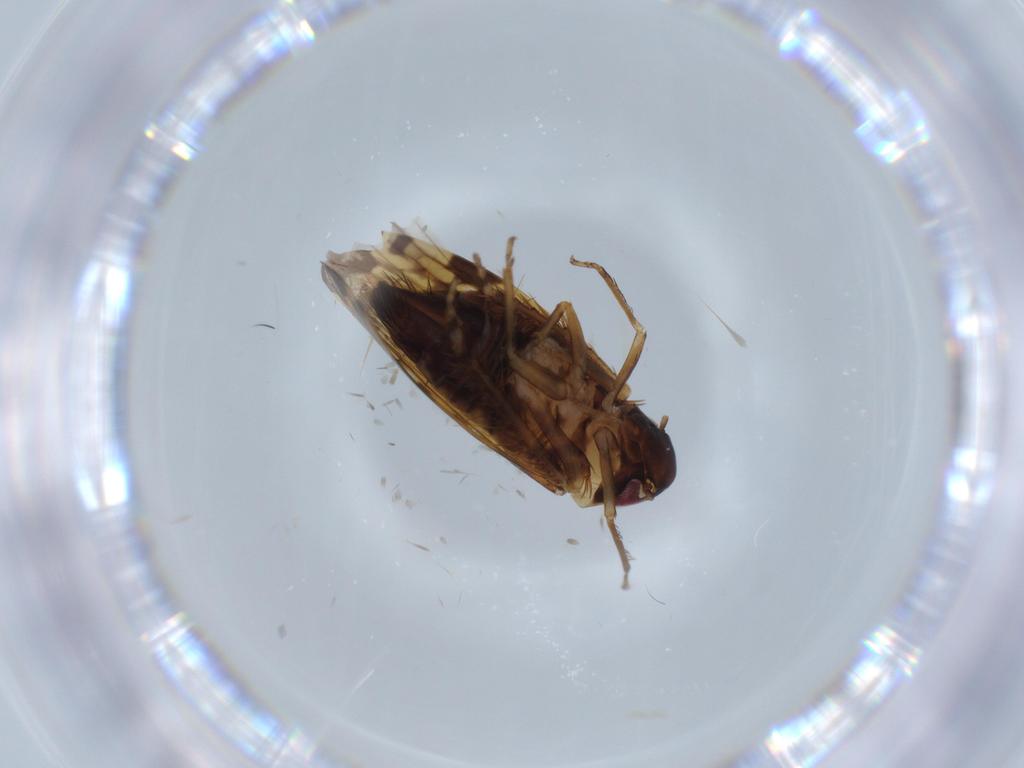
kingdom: Animalia
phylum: Arthropoda
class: Insecta
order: Hemiptera
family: Cicadellidae
